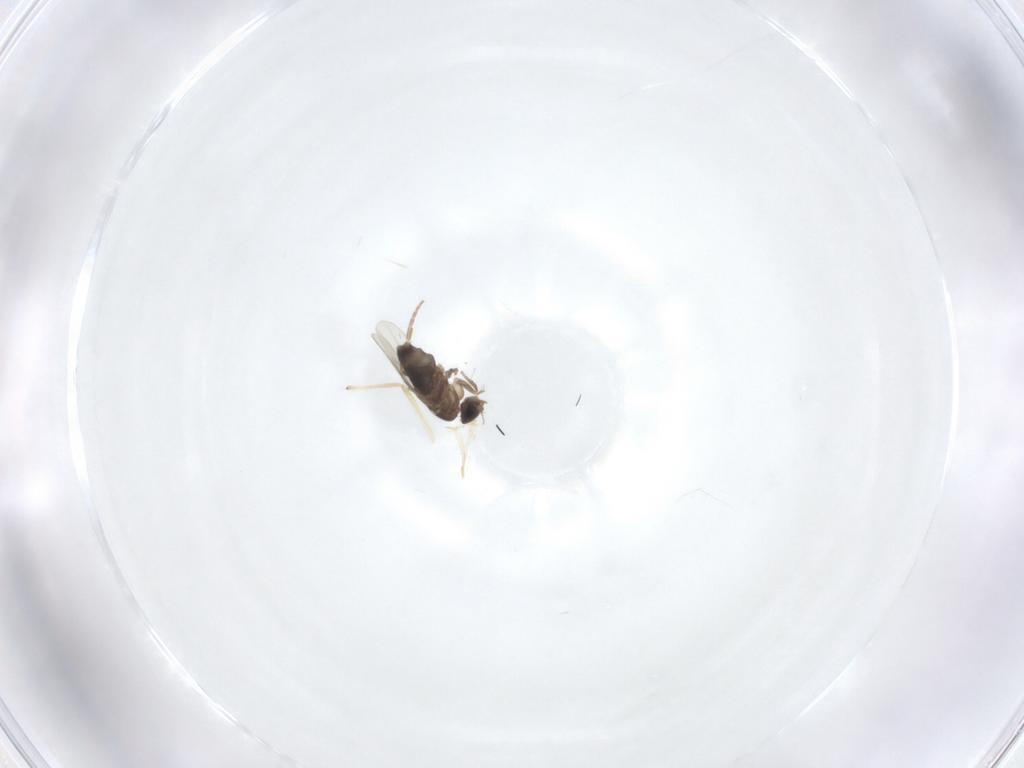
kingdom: Animalia
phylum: Arthropoda
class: Insecta
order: Diptera
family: Phoridae
